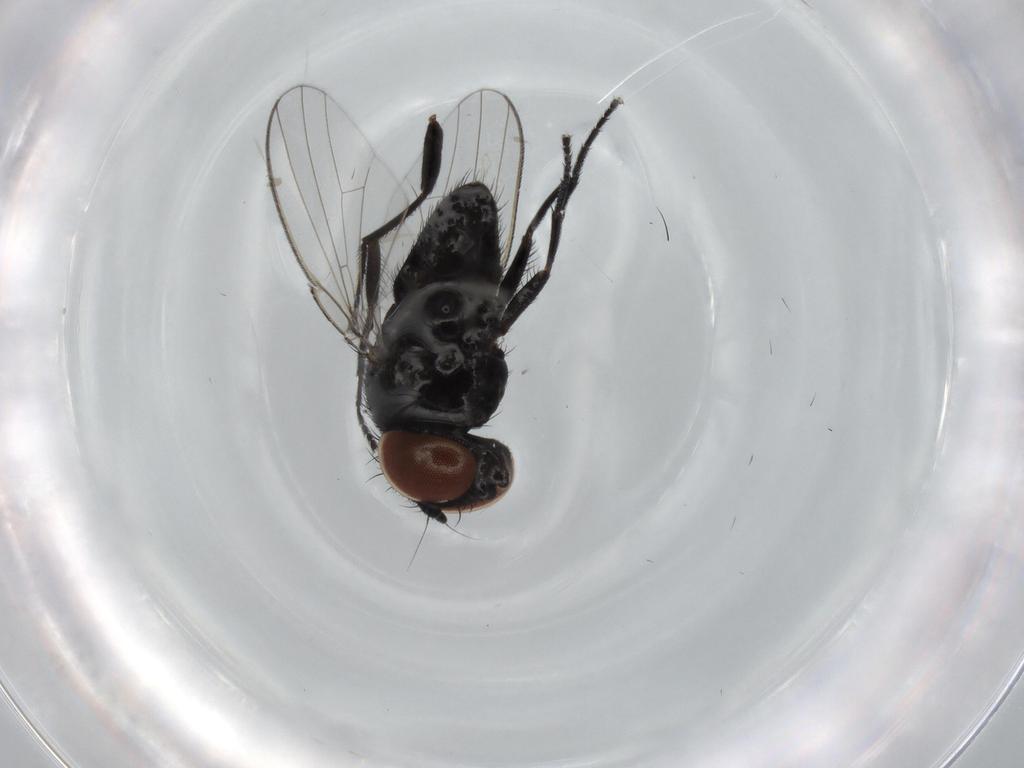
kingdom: Animalia
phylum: Arthropoda
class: Insecta
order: Diptera
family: Milichiidae
